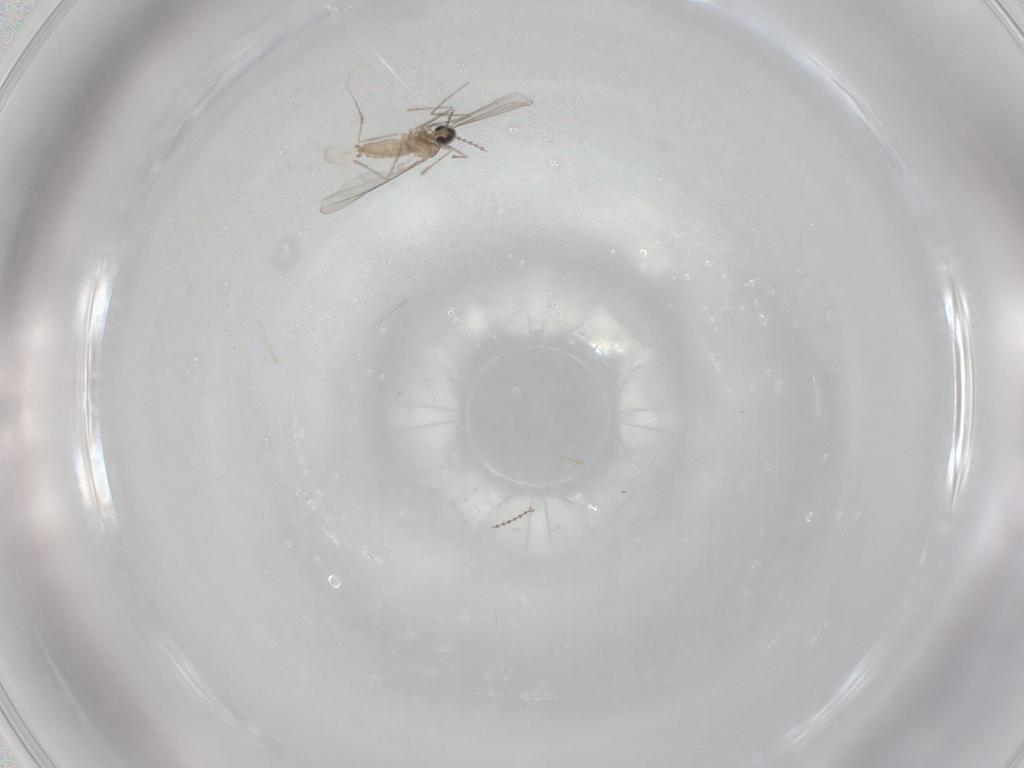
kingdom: Animalia
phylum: Arthropoda
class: Insecta
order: Diptera
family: Cecidomyiidae
